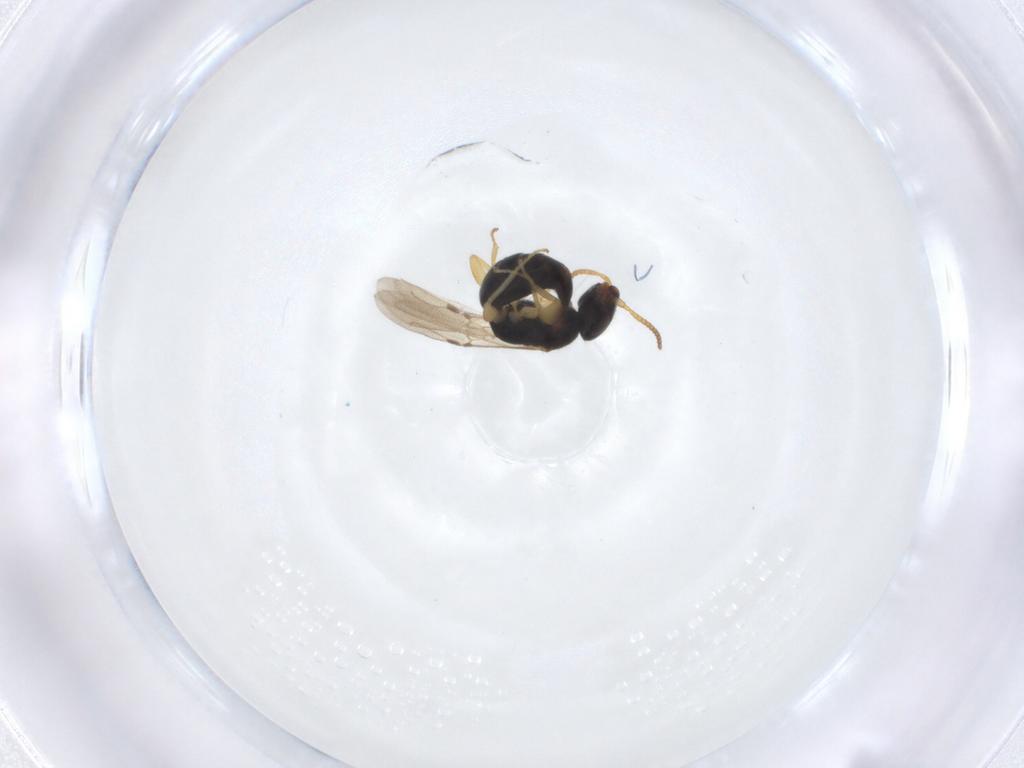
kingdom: Animalia
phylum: Arthropoda
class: Insecta
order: Hymenoptera
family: Bethylidae
